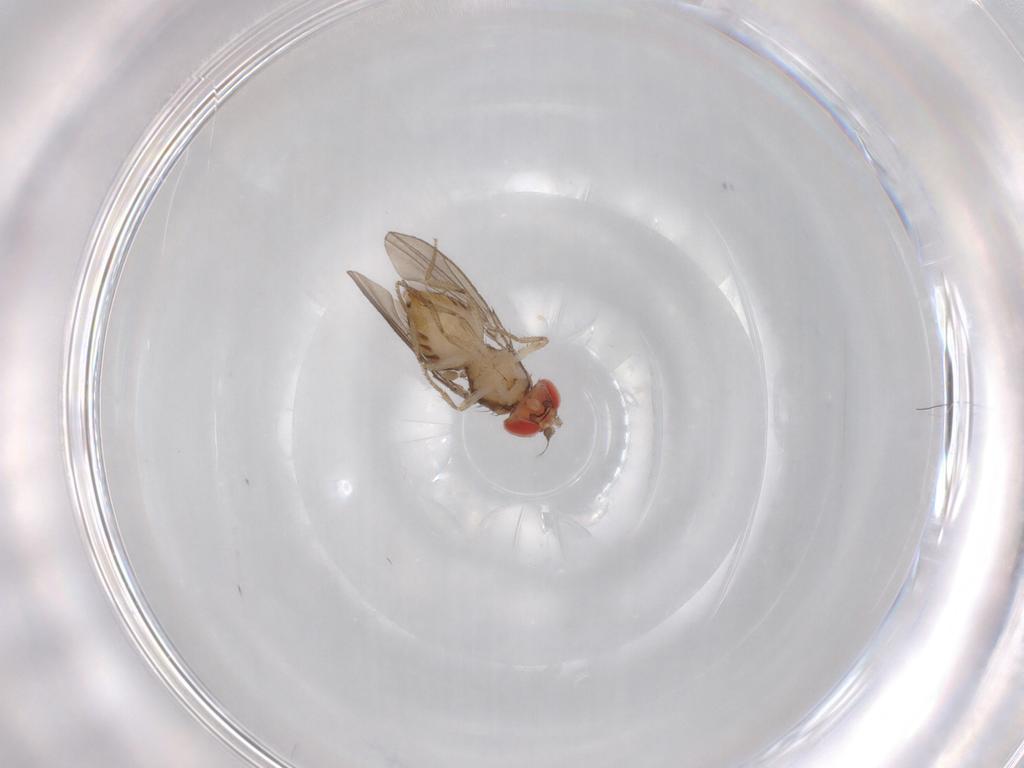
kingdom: Animalia
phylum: Arthropoda
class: Insecta
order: Diptera
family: Drosophilidae
